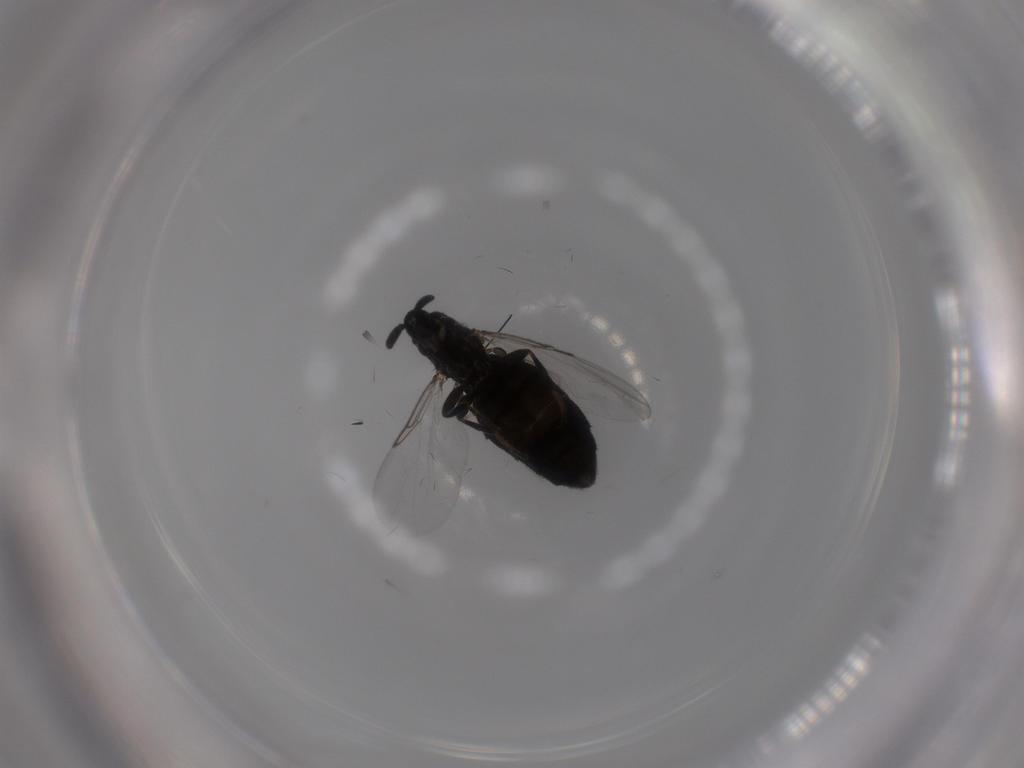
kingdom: Animalia
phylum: Arthropoda
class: Insecta
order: Diptera
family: Scatopsidae
